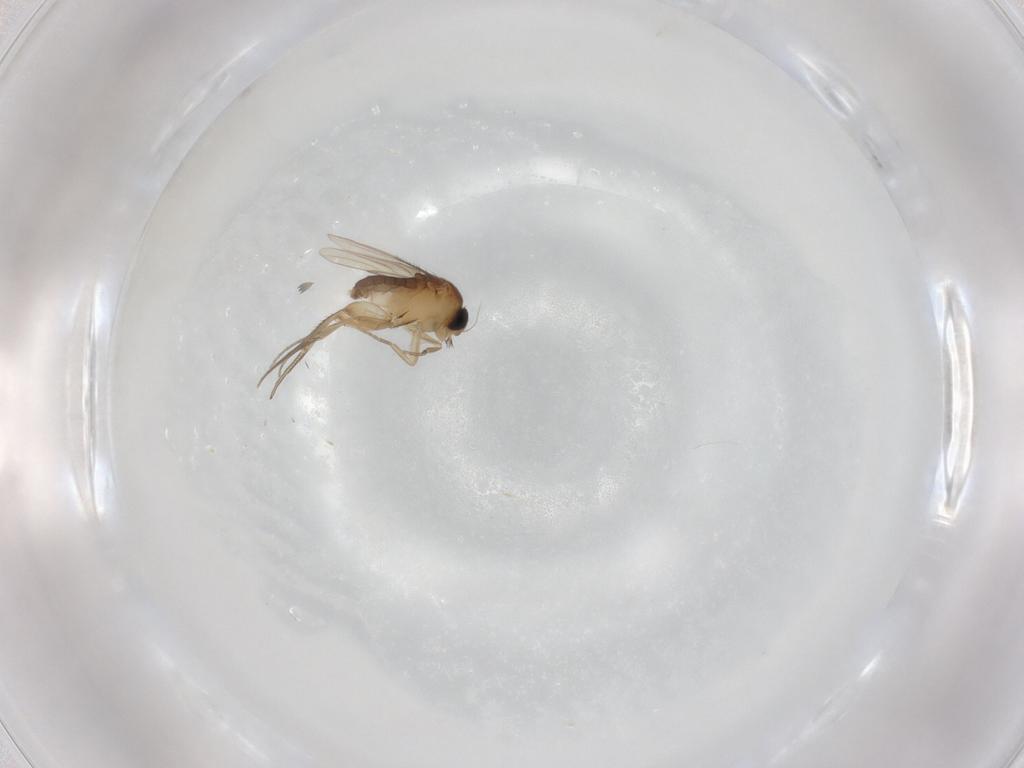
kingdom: Animalia
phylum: Arthropoda
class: Insecta
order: Diptera
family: Phoridae
